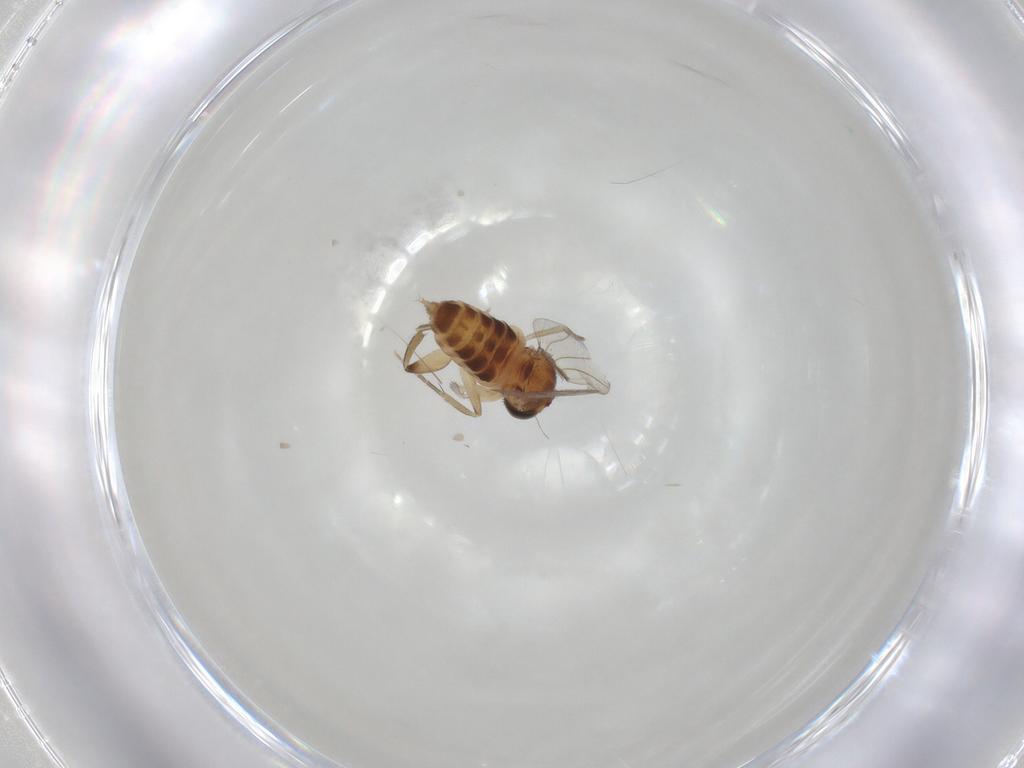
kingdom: Animalia
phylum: Arthropoda
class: Insecta
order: Diptera
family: Phoridae
